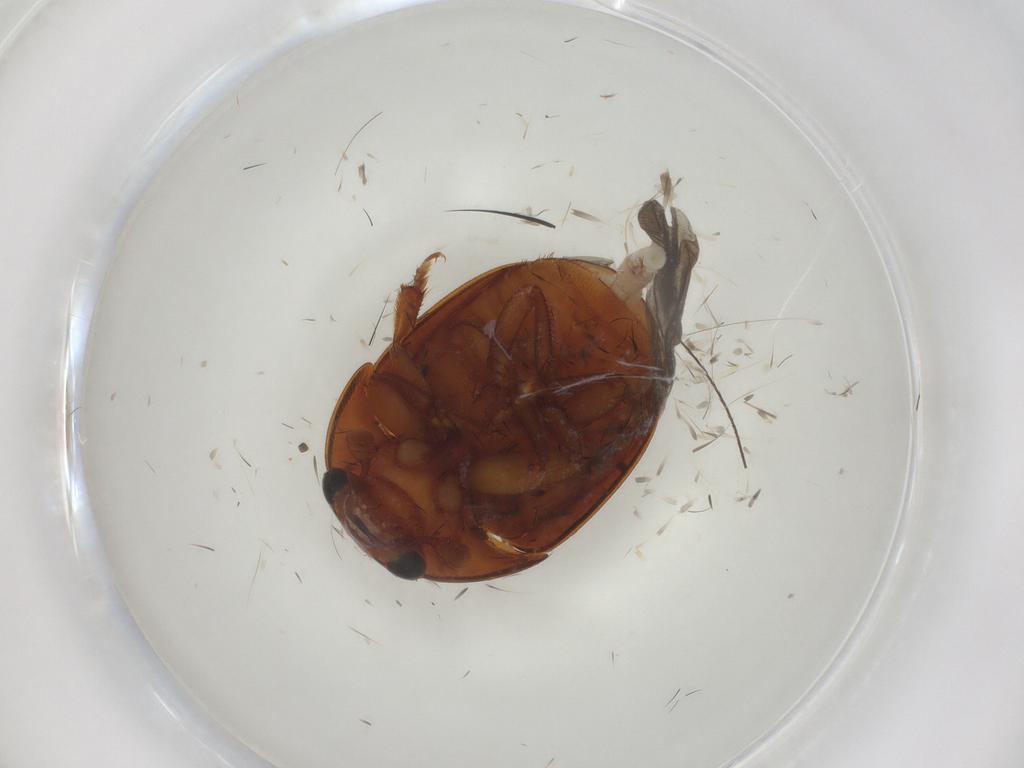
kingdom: Animalia
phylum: Arthropoda
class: Insecta
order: Coleoptera
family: Nitidulidae
